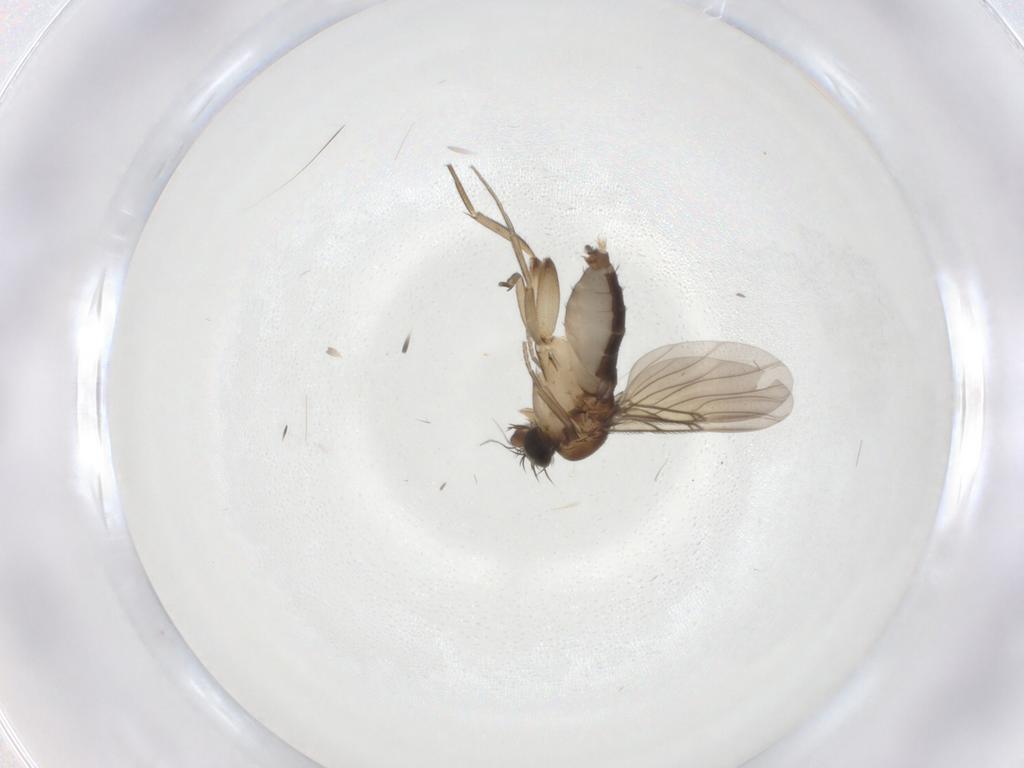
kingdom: Animalia
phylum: Arthropoda
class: Insecta
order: Diptera
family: Phoridae
